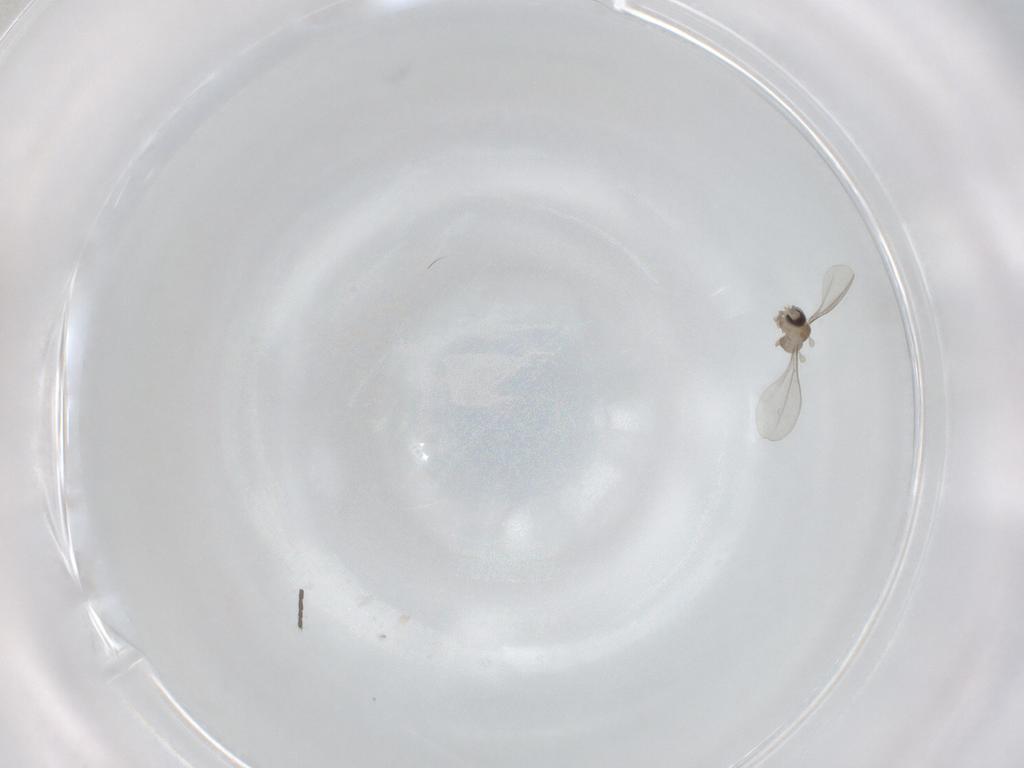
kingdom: Animalia
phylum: Arthropoda
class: Insecta
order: Diptera
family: Cecidomyiidae
